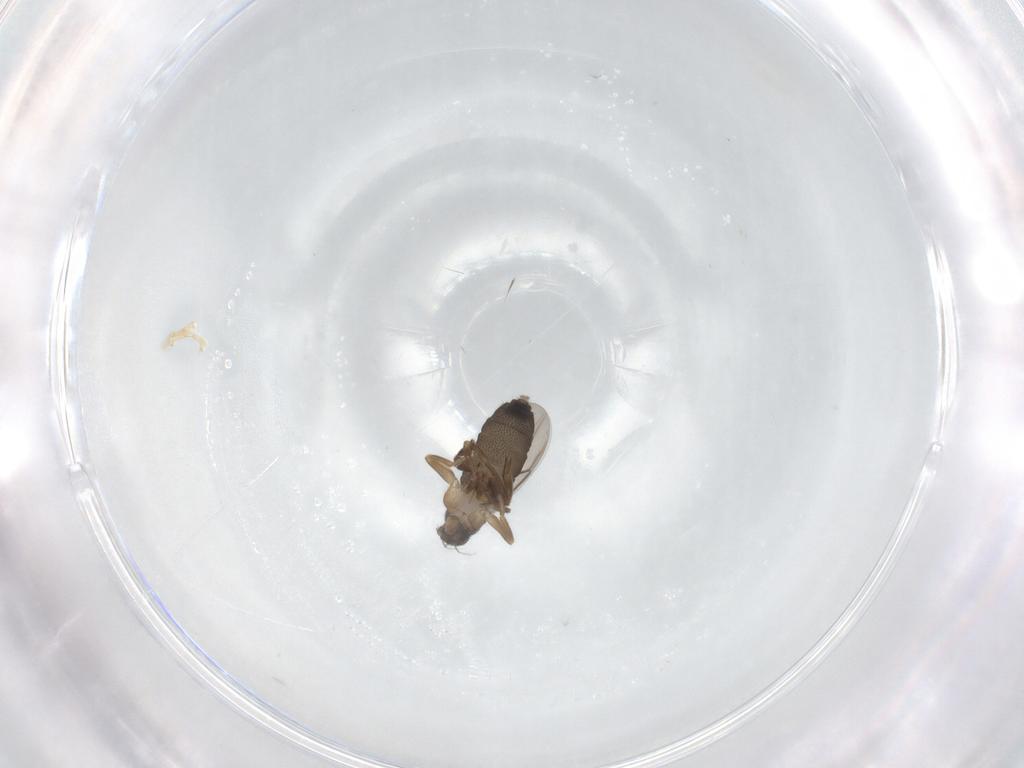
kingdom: Animalia
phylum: Arthropoda
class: Insecta
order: Diptera
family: Phoridae
